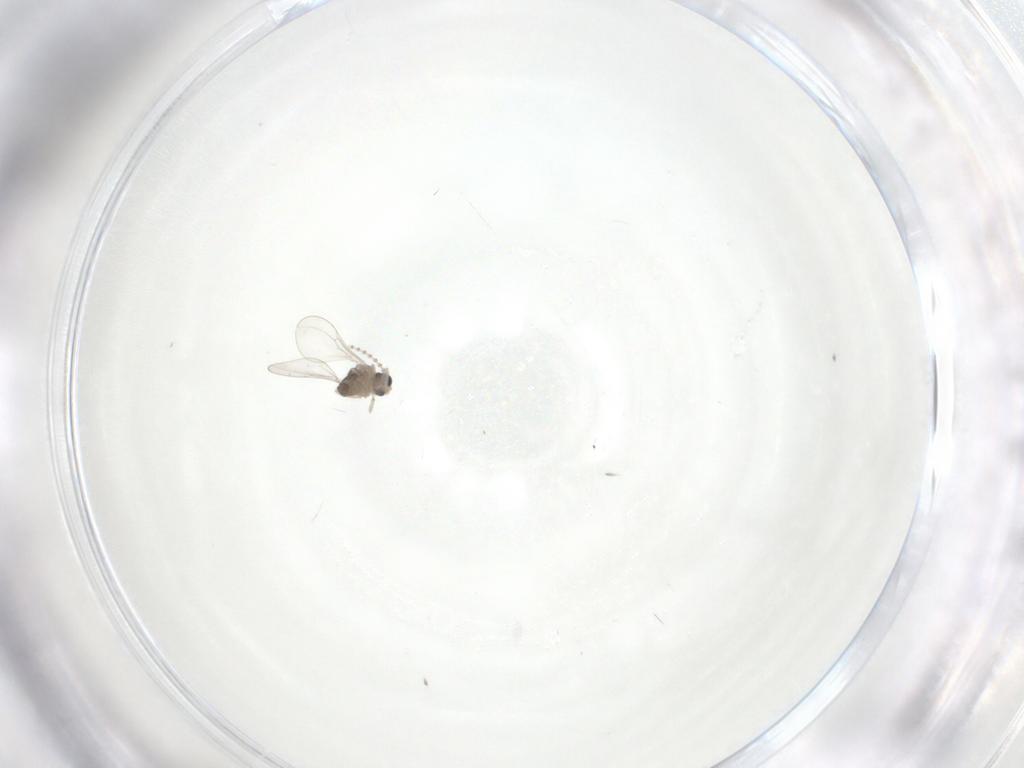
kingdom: Animalia
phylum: Arthropoda
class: Insecta
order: Diptera
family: Cecidomyiidae
